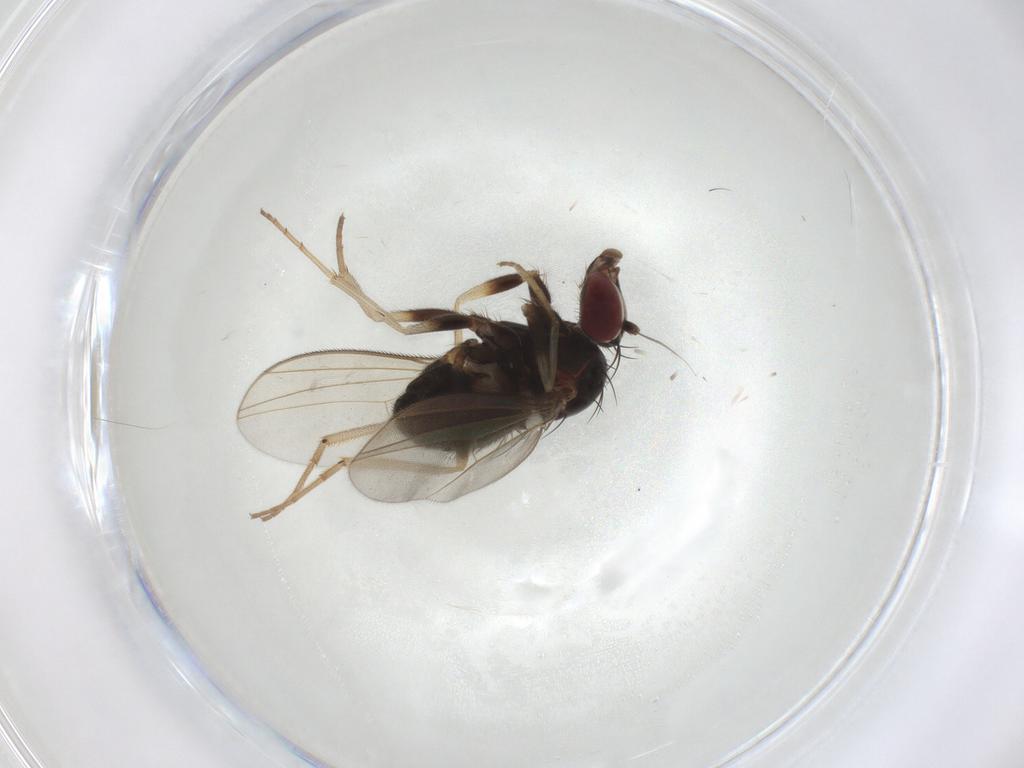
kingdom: Animalia
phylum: Arthropoda
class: Insecta
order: Diptera
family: Dolichopodidae
